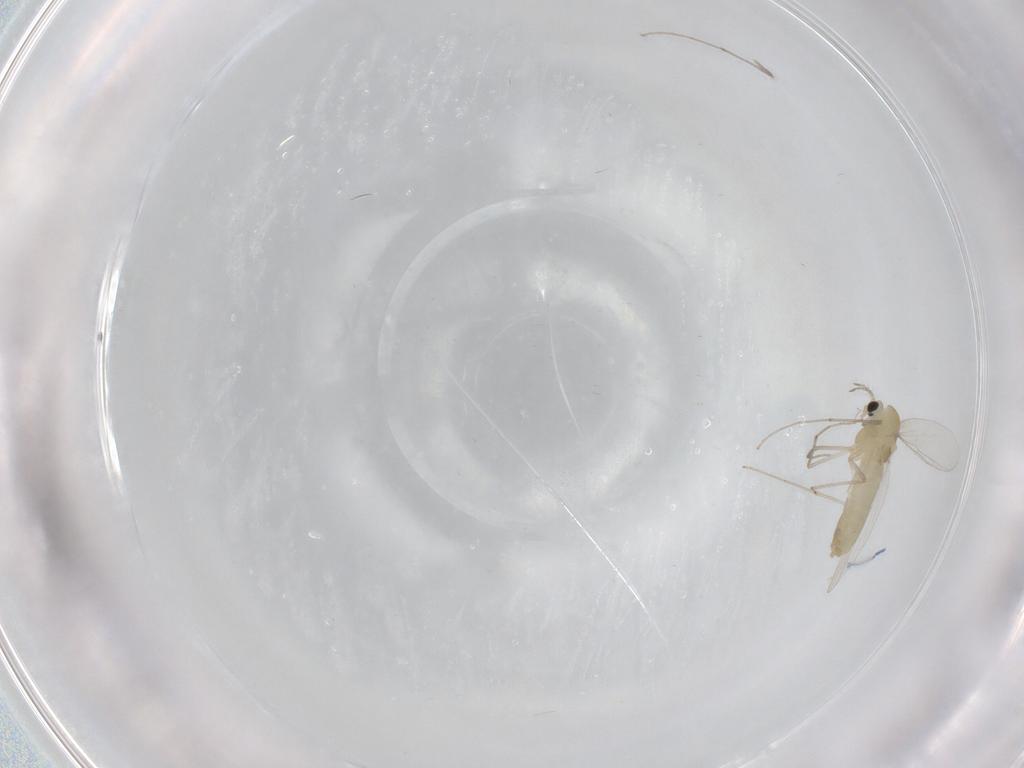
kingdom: Animalia
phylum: Arthropoda
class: Insecta
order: Diptera
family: Chironomidae
